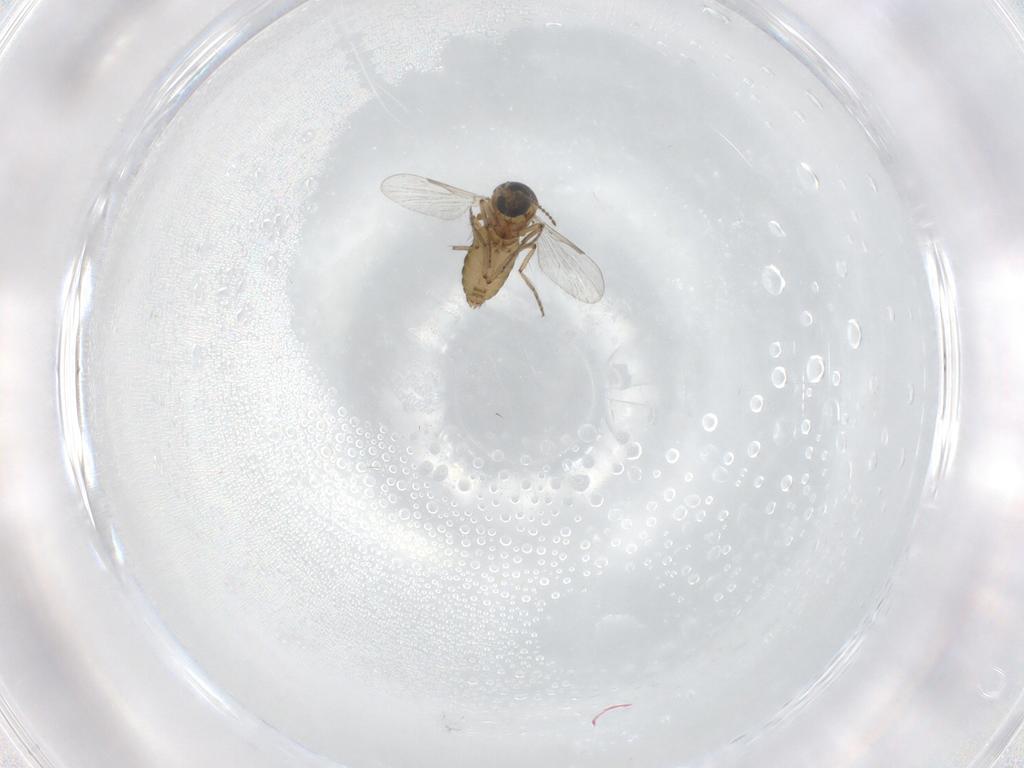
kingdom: Animalia
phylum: Arthropoda
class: Insecta
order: Diptera
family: Ceratopogonidae
